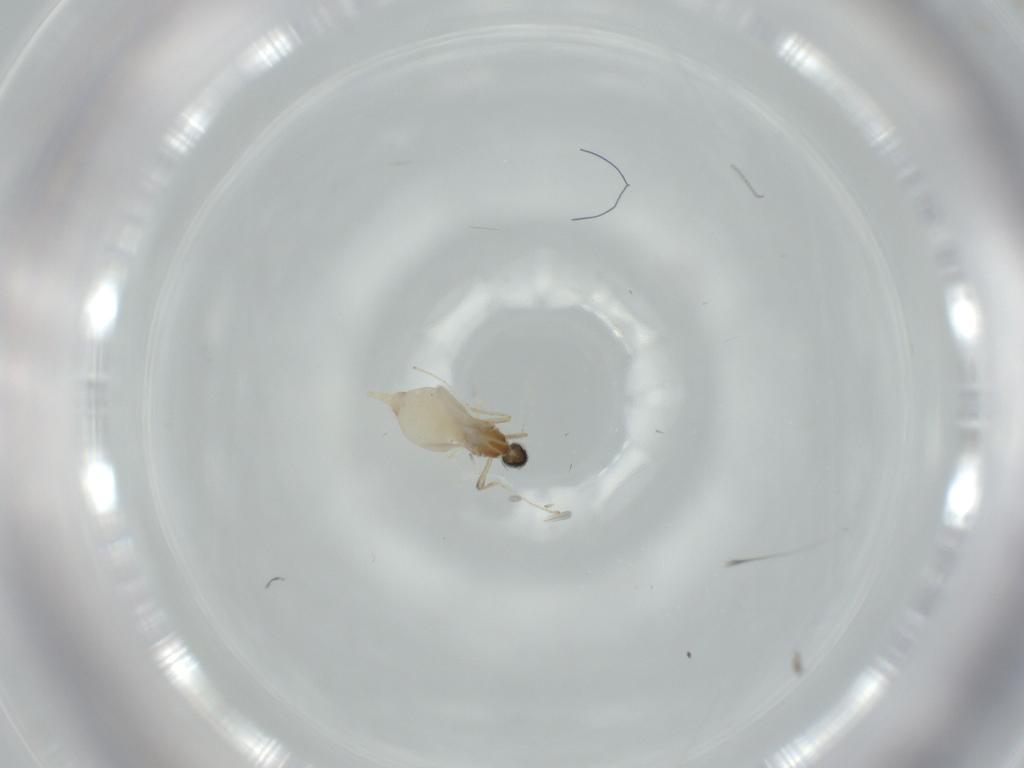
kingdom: Animalia
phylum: Arthropoda
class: Insecta
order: Diptera
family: Cecidomyiidae
